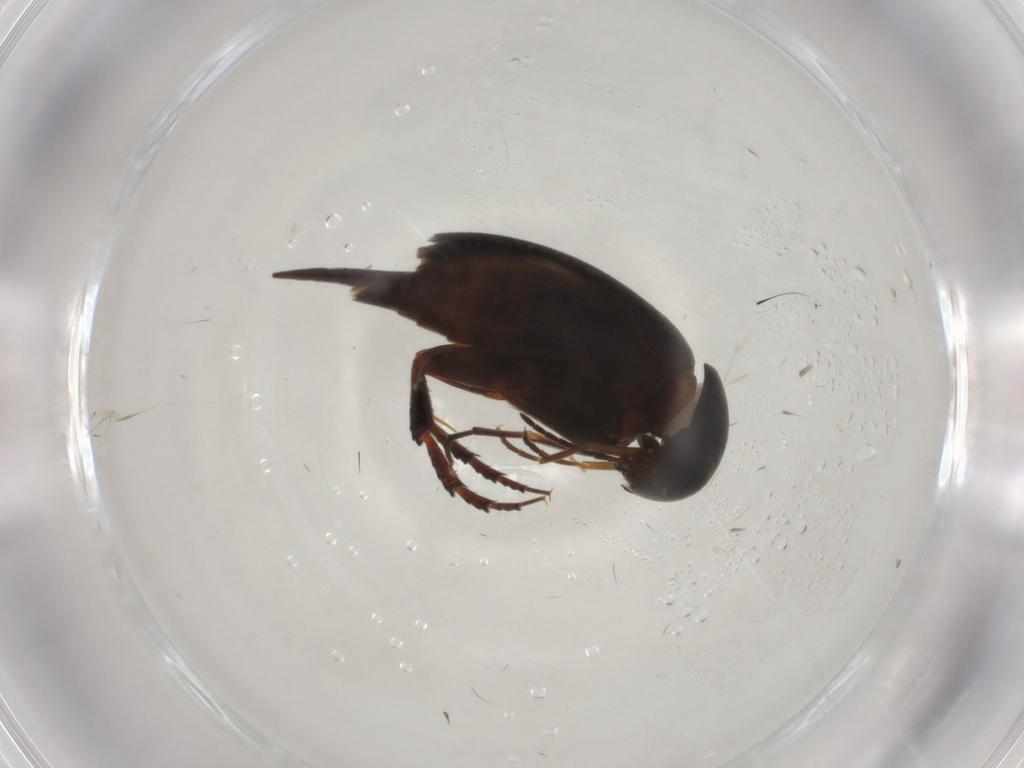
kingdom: Animalia
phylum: Arthropoda
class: Insecta
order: Coleoptera
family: Mordellidae
